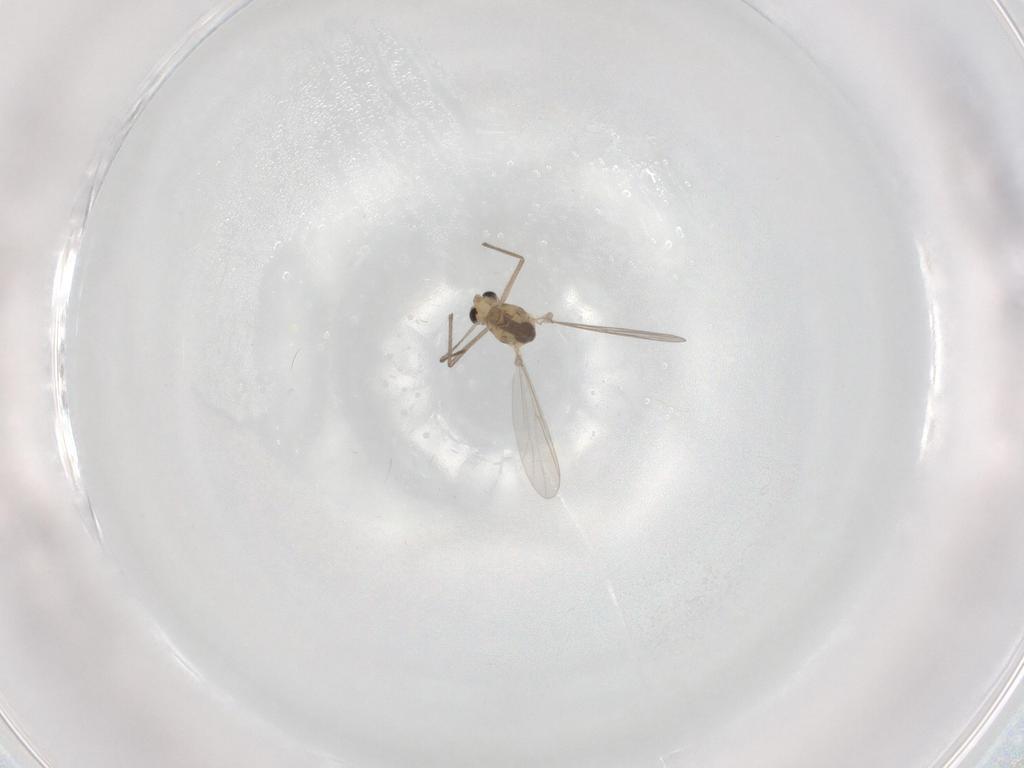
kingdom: Animalia
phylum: Arthropoda
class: Insecta
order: Diptera
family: Chironomidae
